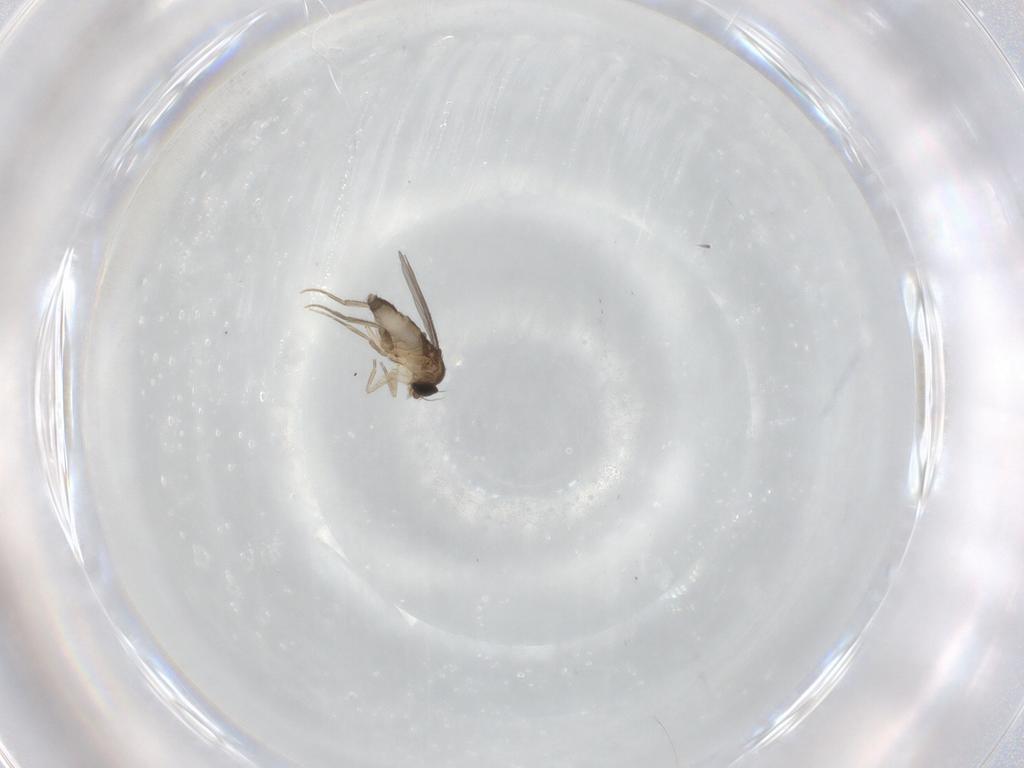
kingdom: Animalia
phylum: Arthropoda
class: Insecta
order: Diptera
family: Phoridae
